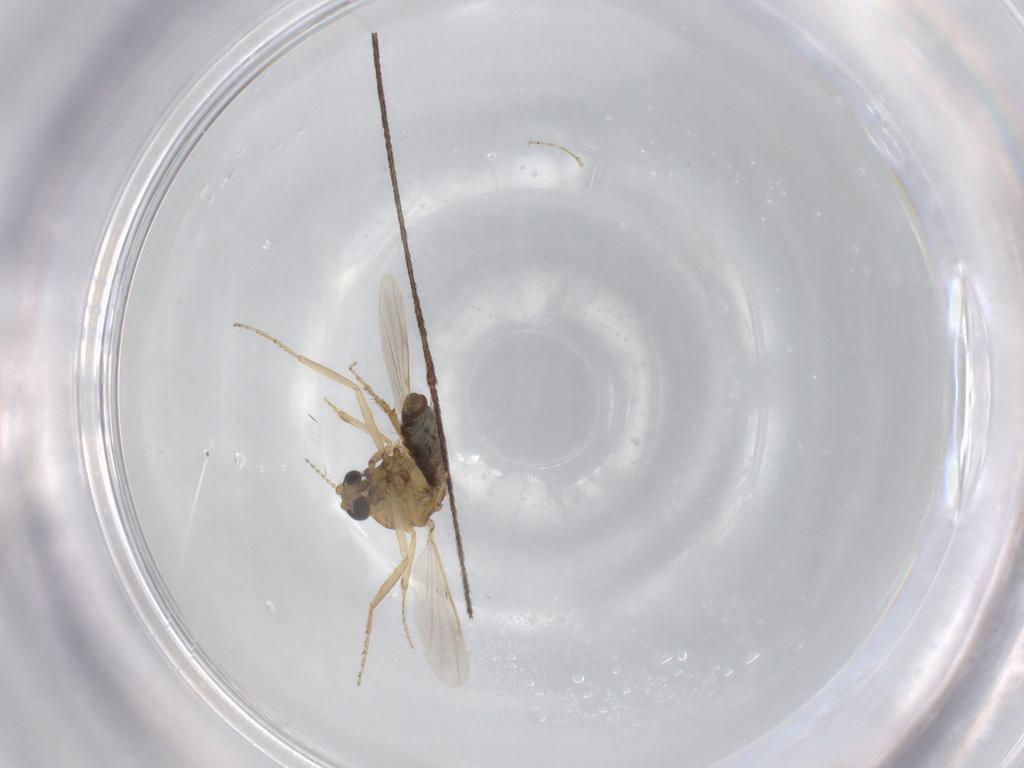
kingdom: Animalia
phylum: Arthropoda
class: Insecta
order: Diptera
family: Ceratopogonidae
